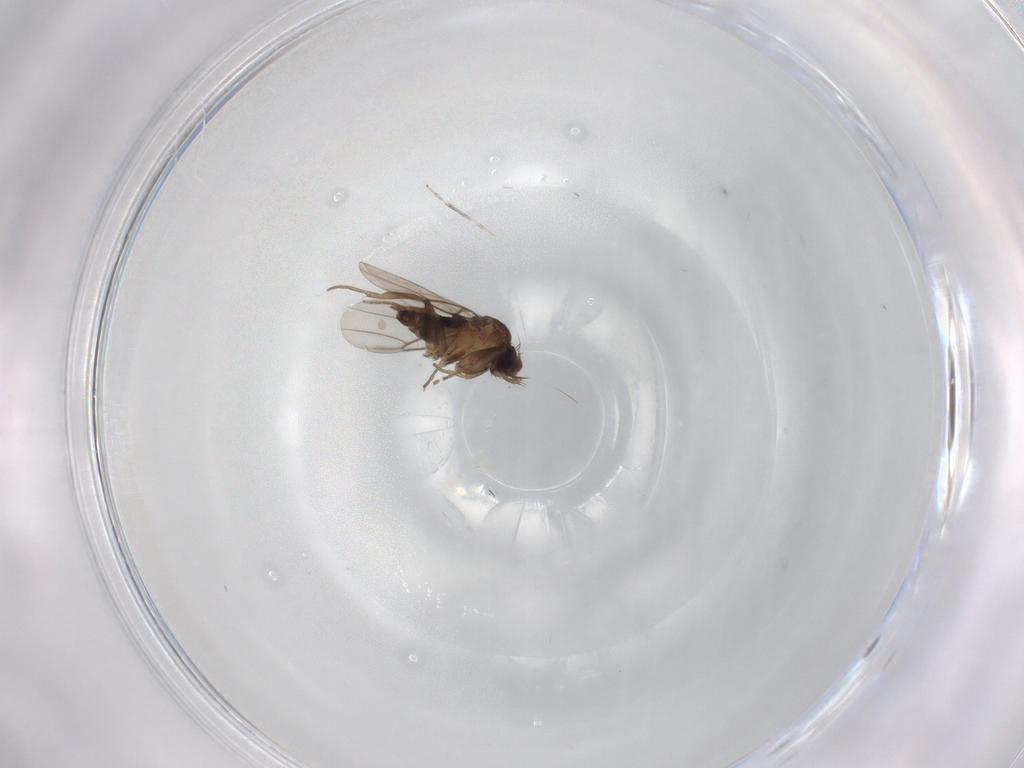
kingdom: Animalia
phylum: Arthropoda
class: Insecta
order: Diptera
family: Phoridae
